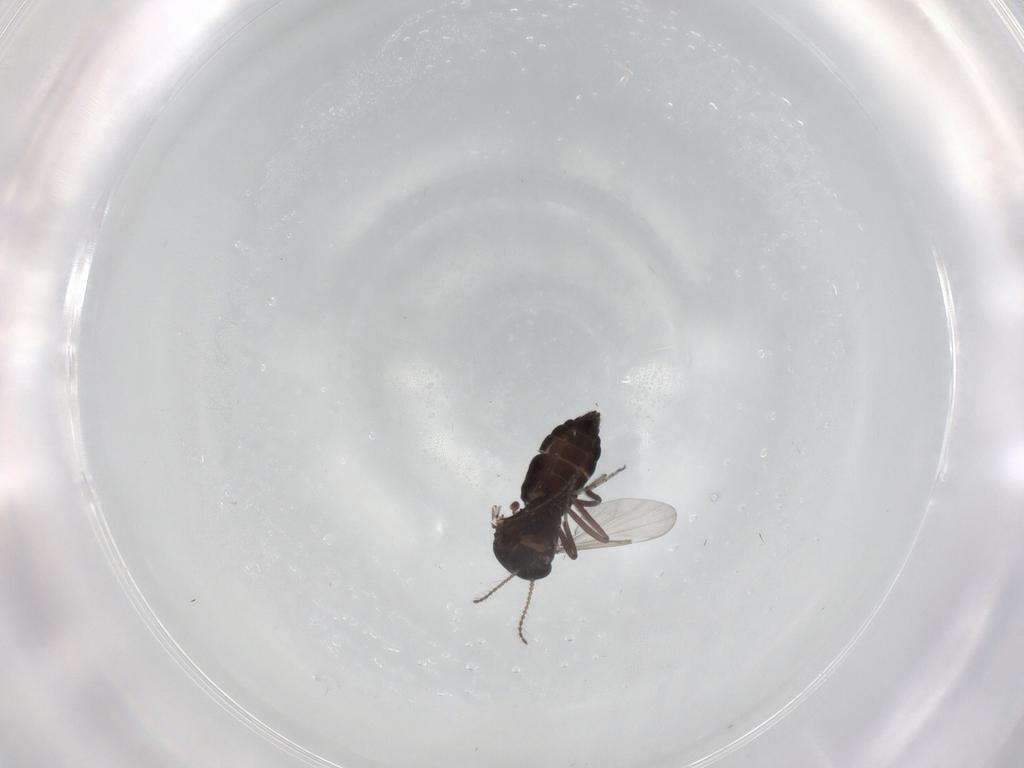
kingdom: Animalia
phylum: Arthropoda
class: Insecta
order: Diptera
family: Ceratopogonidae
